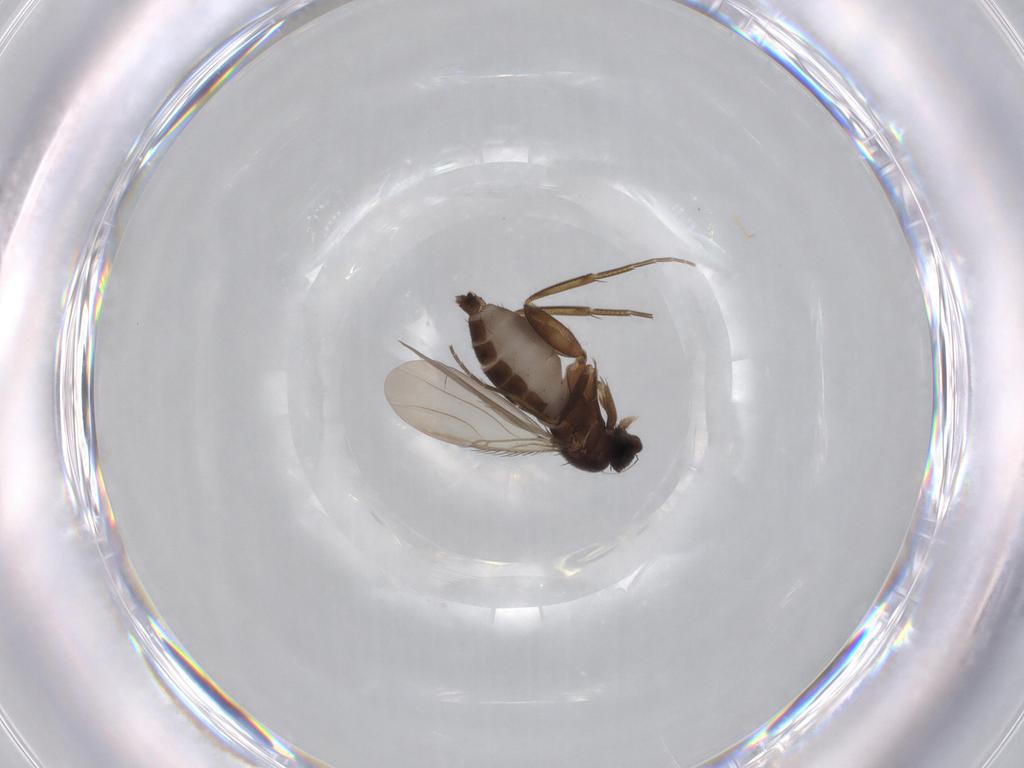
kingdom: Animalia
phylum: Arthropoda
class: Insecta
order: Diptera
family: Phoridae
